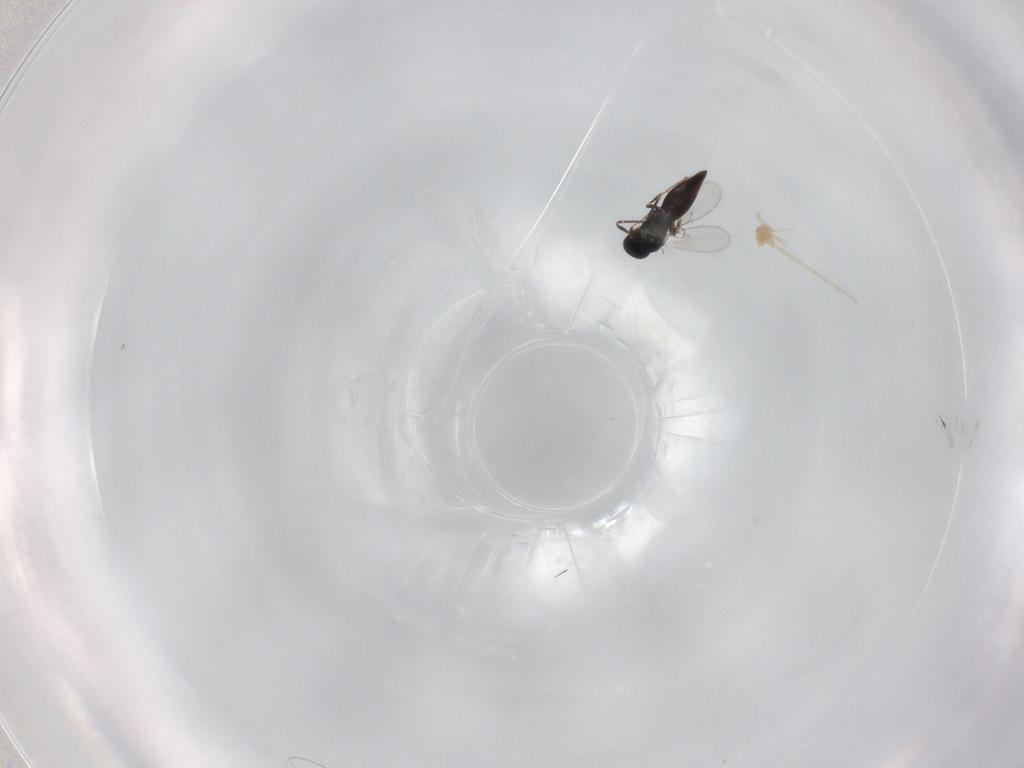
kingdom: Animalia
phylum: Arthropoda
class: Insecta
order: Hymenoptera
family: Scelionidae
